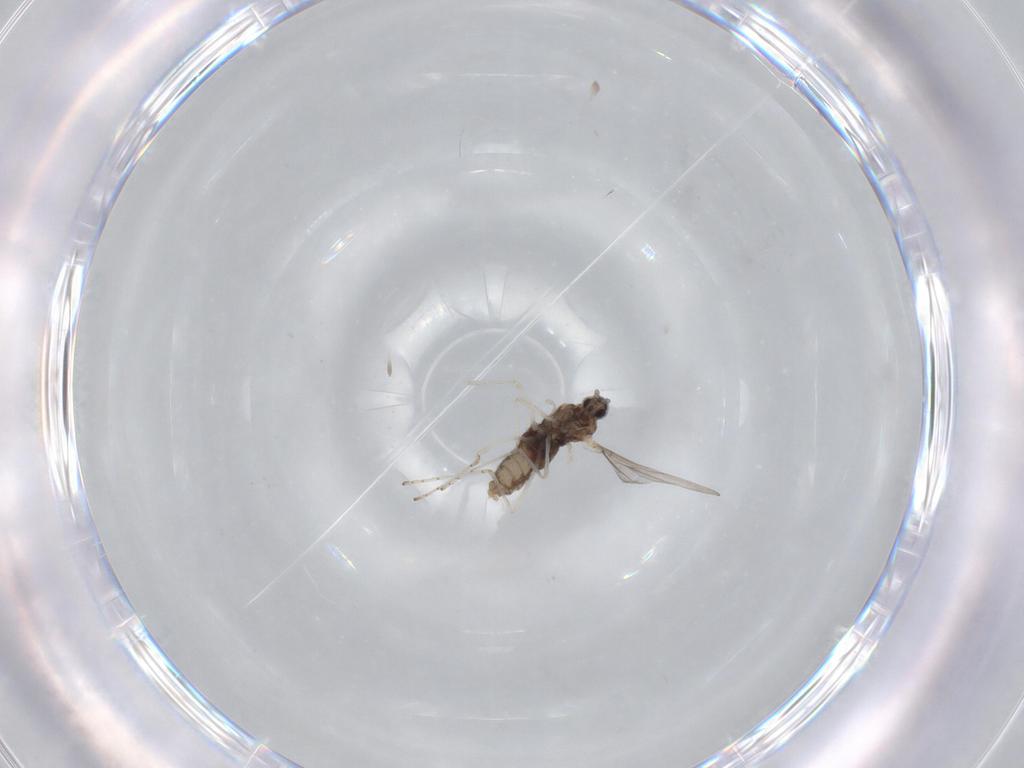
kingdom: Animalia
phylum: Arthropoda
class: Insecta
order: Diptera
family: Cecidomyiidae
